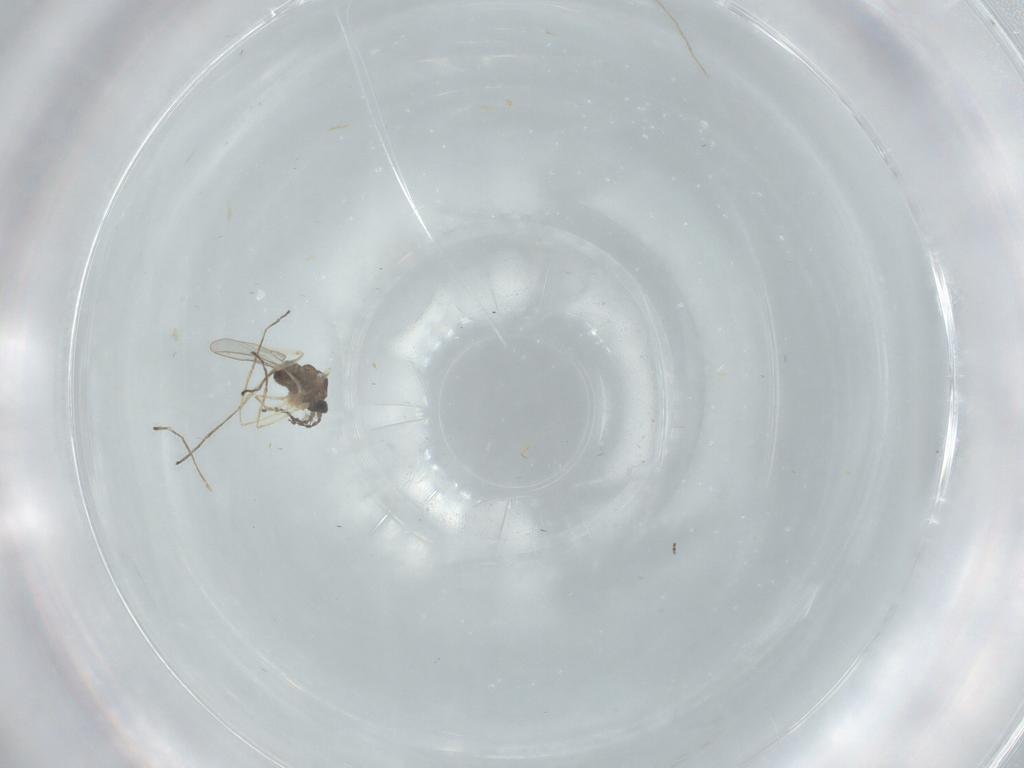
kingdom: Animalia
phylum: Arthropoda
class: Insecta
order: Diptera
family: Cecidomyiidae
